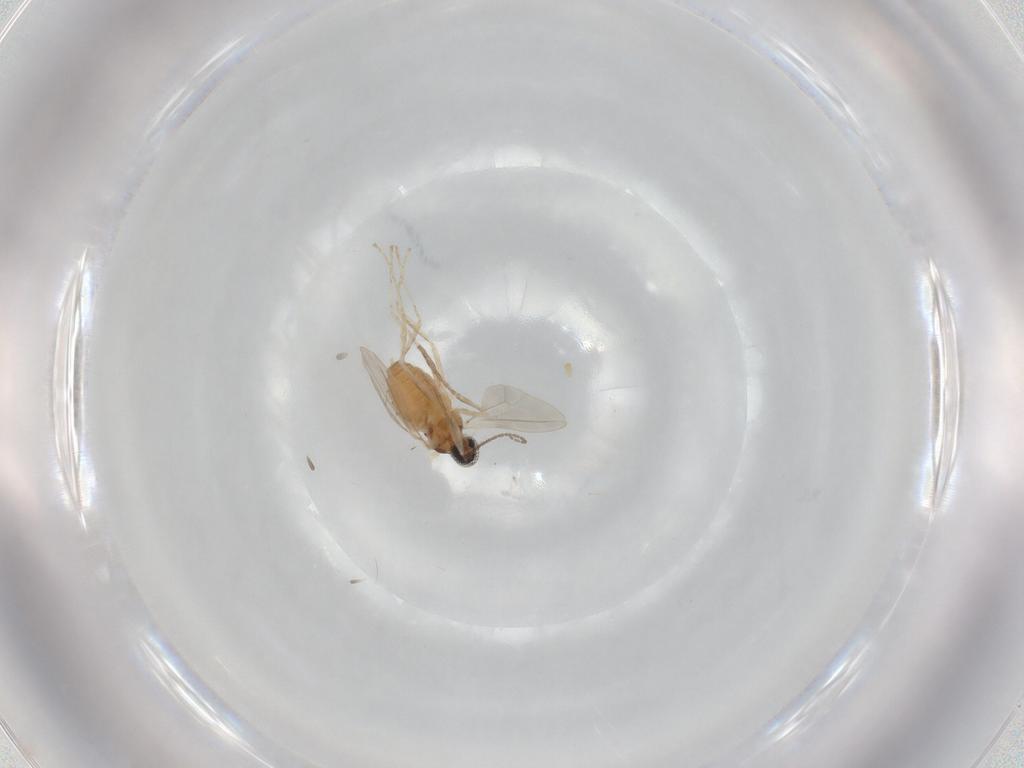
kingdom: Animalia
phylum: Arthropoda
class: Insecta
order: Diptera
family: Cecidomyiidae
